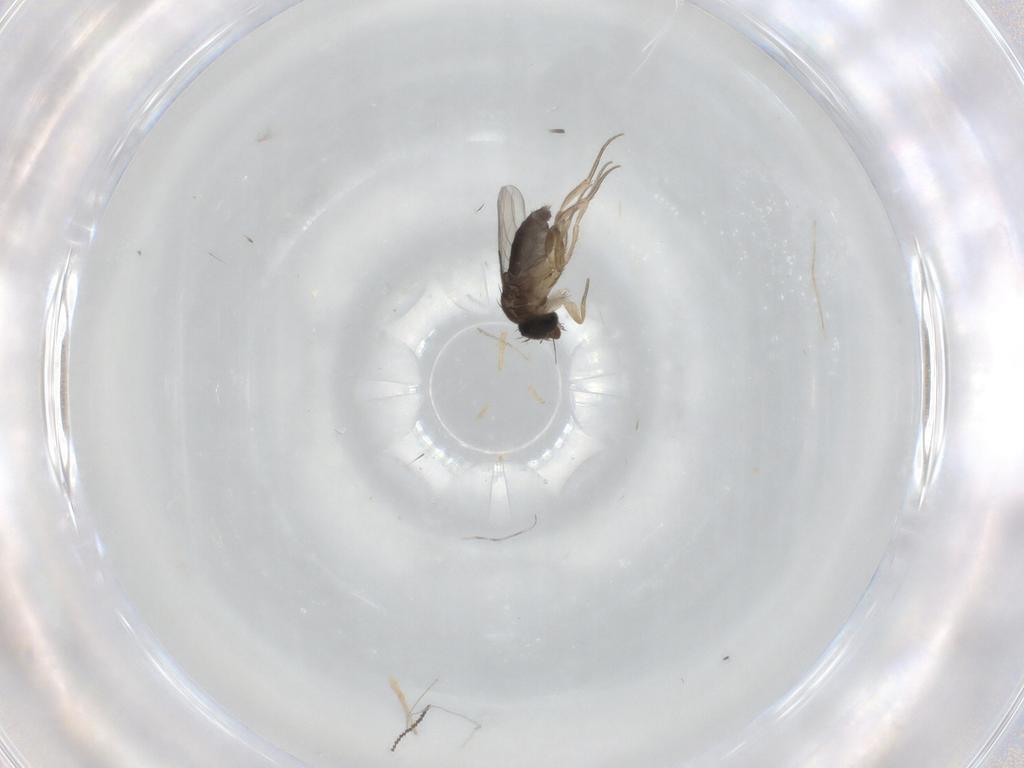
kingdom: Animalia
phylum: Arthropoda
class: Insecta
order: Diptera
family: Phoridae
